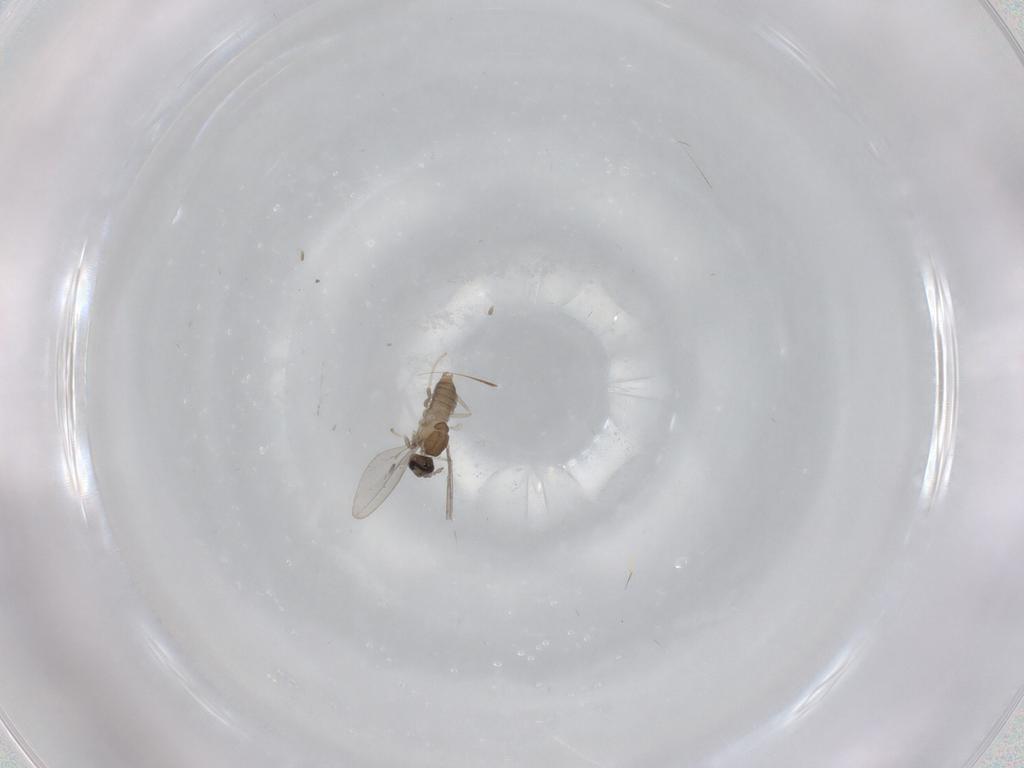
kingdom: Animalia
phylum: Arthropoda
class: Insecta
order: Diptera
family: Cecidomyiidae
